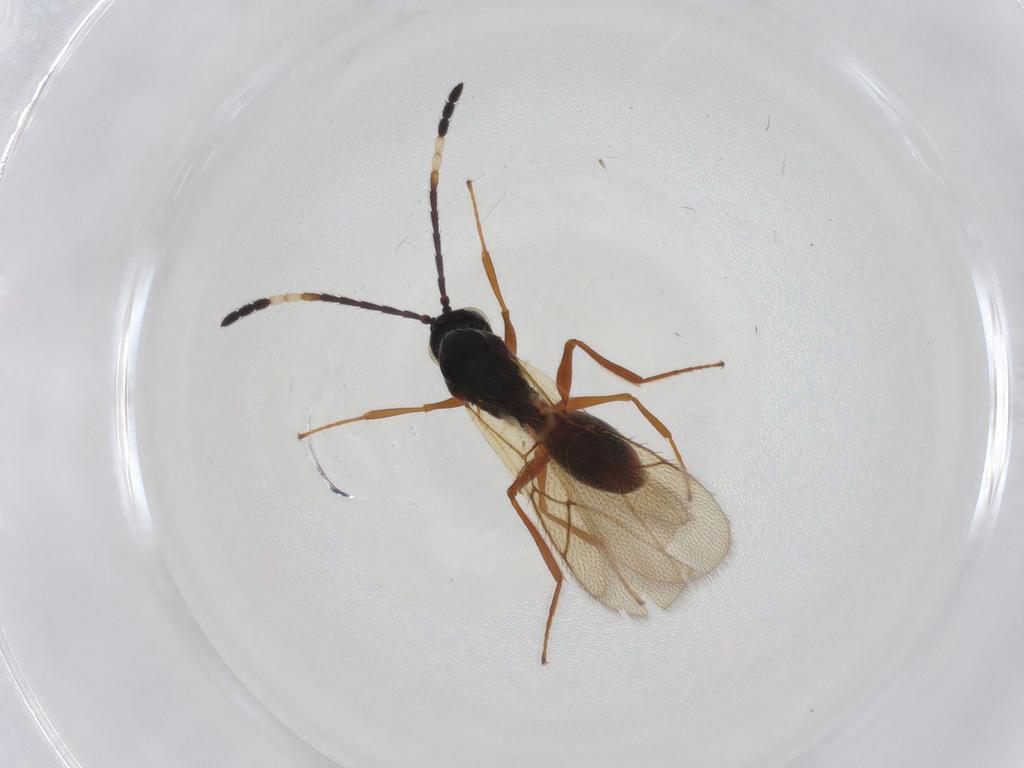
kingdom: Animalia
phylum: Arthropoda
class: Insecta
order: Hymenoptera
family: Figitidae
